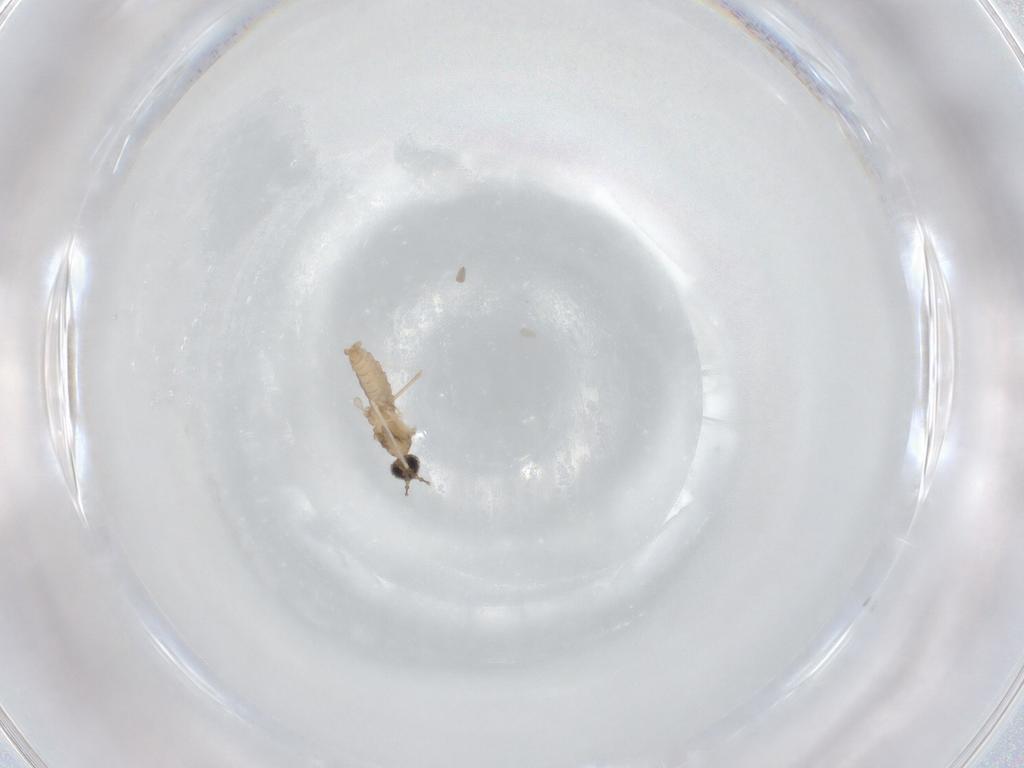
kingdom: Animalia
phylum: Arthropoda
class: Insecta
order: Diptera
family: Cecidomyiidae
